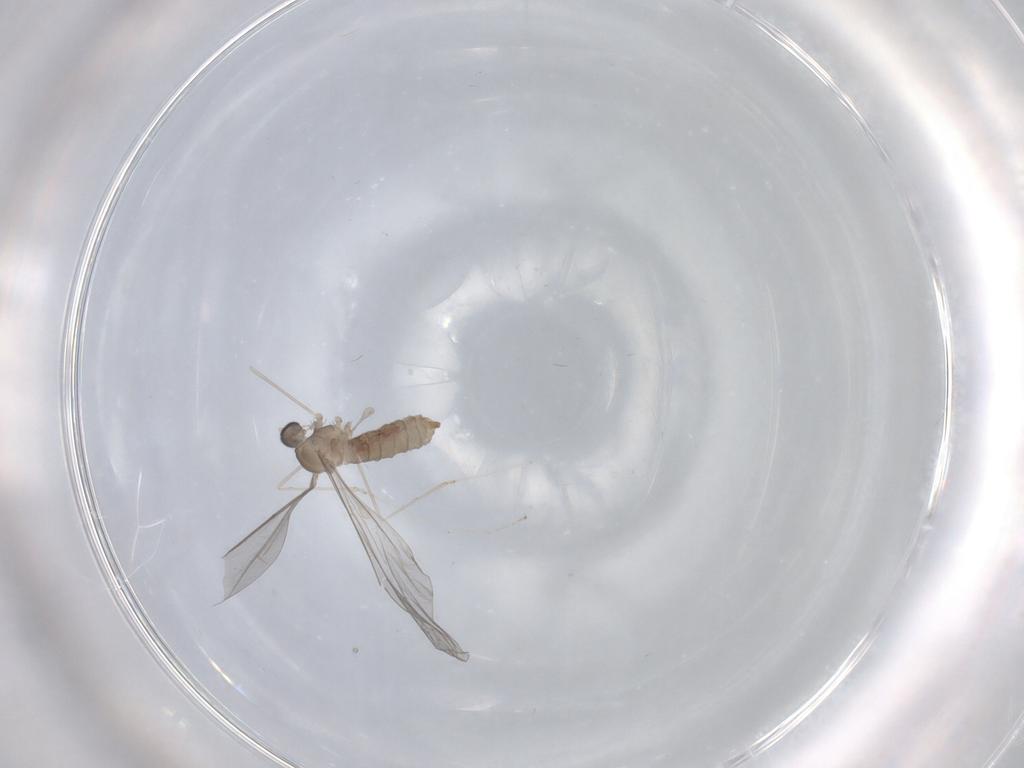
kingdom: Animalia
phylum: Arthropoda
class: Insecta
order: Diptera
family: Cecidomyiidae
